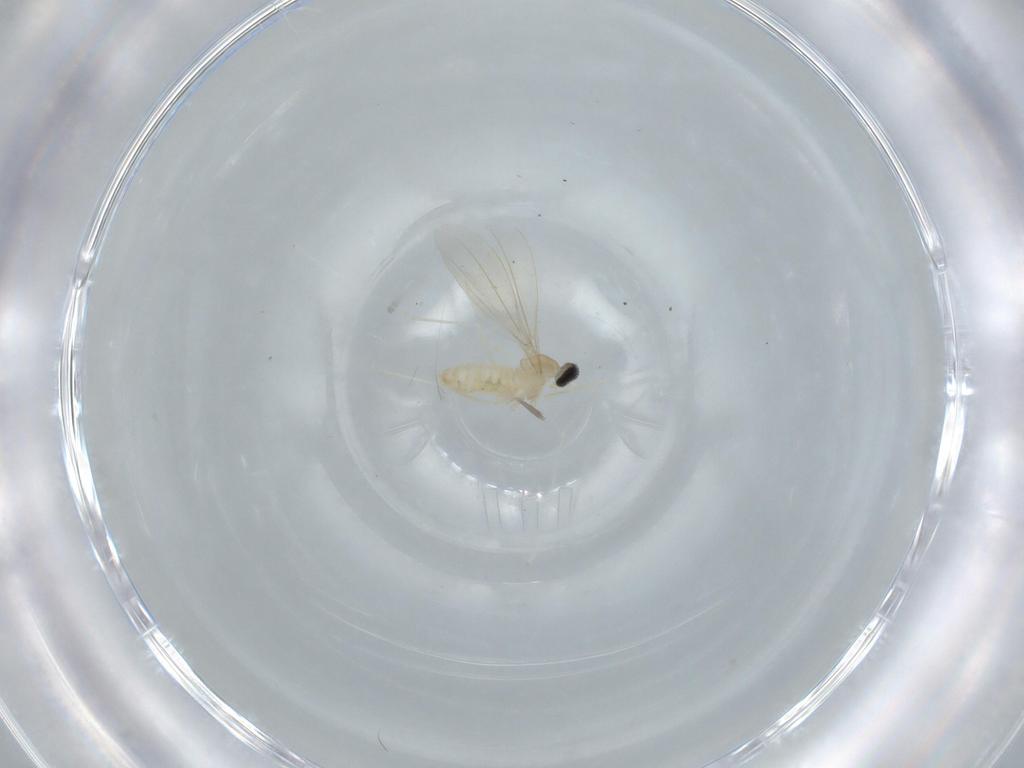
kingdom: Animalia
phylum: Arthropoda
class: Insecta
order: Diptera
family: Cecidomyiidae
